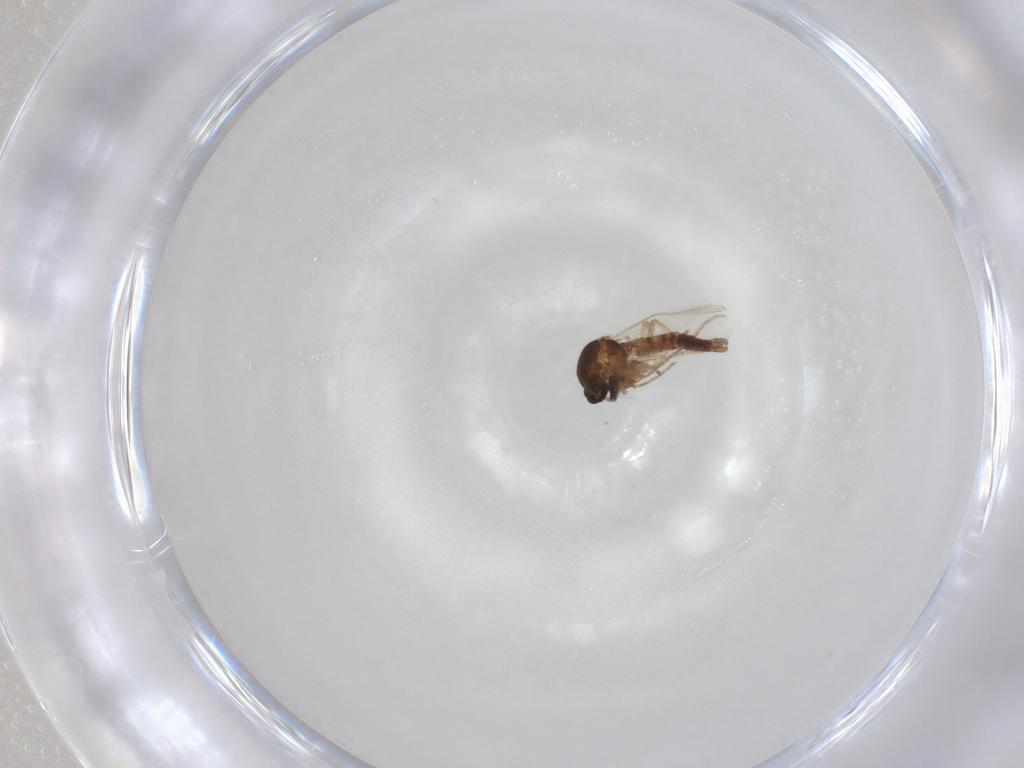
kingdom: Animalia
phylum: Arthropoda
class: Insecta
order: Diptera
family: Ceratopogonidae
